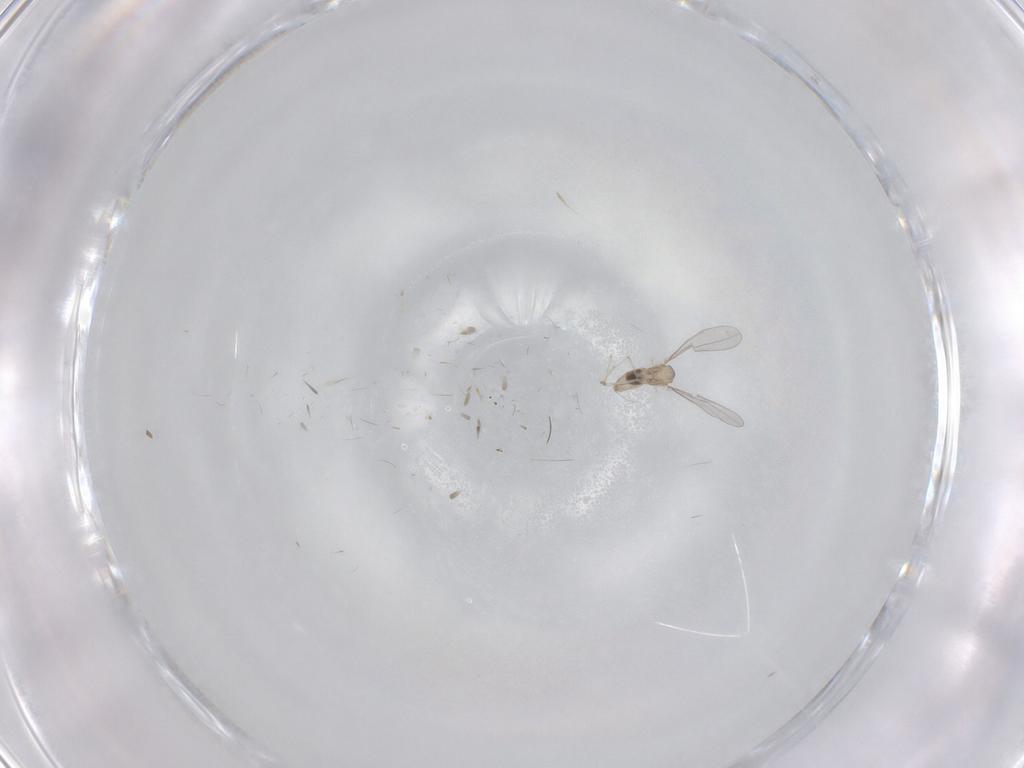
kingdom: Animalia
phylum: Arthropoda
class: Insecta
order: Diptera
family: Cecidomyiidae
